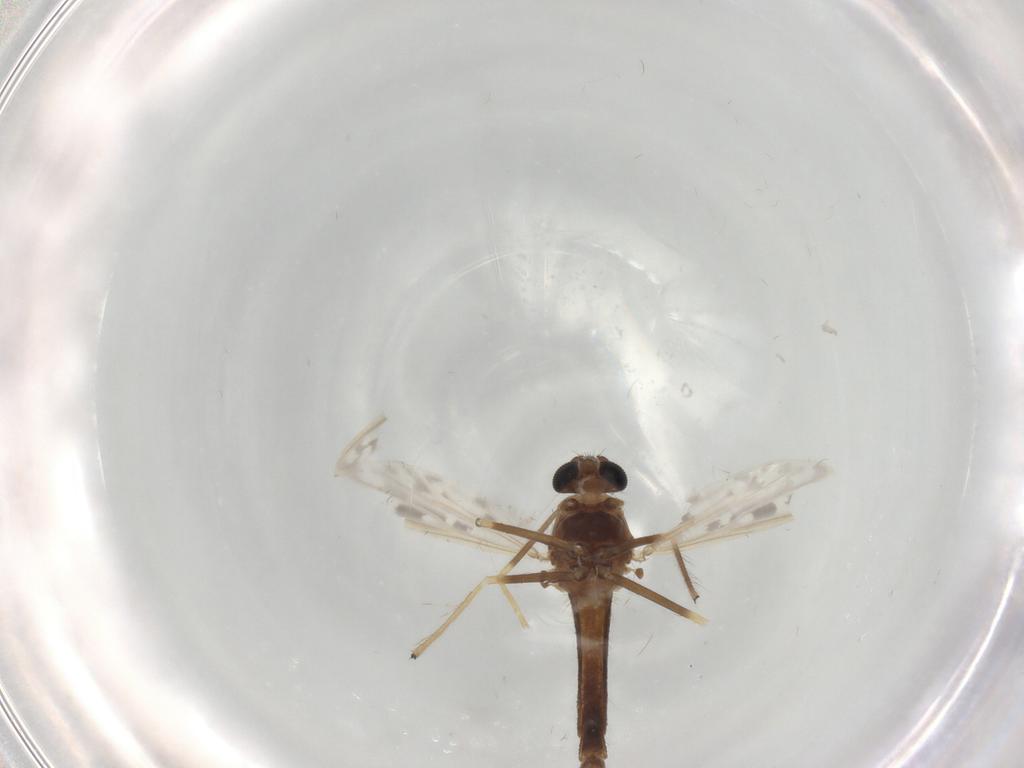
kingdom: Animalia
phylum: Arthropoda
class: Insecta
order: Diptera
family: Chironomidae
